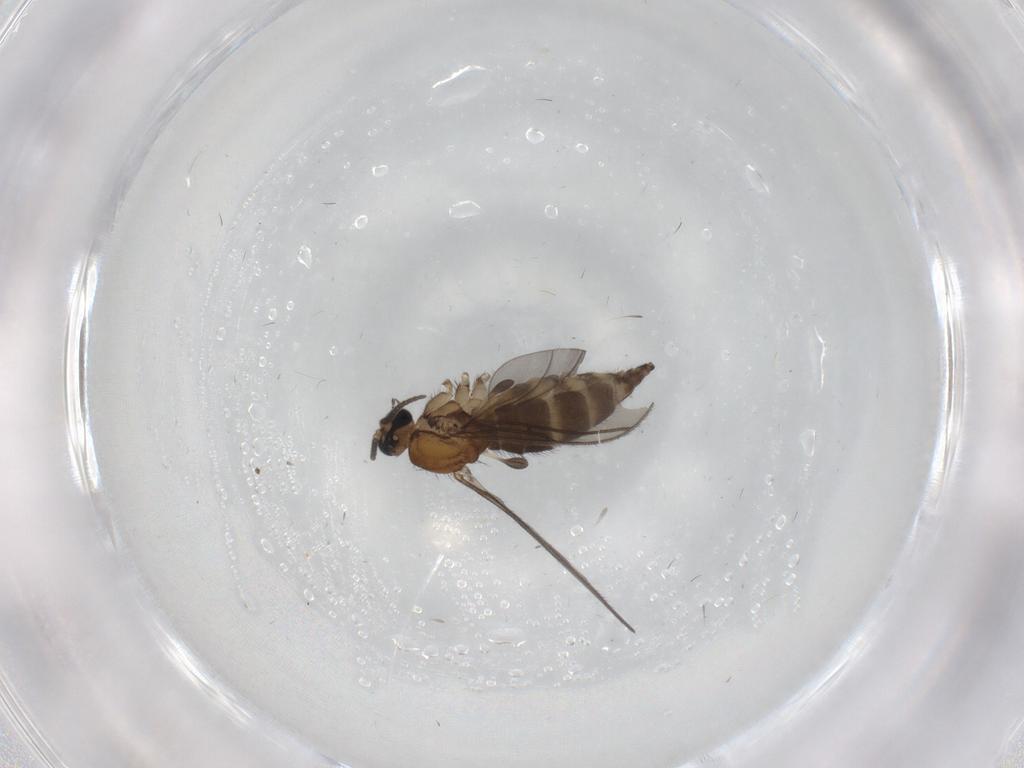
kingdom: Animalia
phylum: Arthropoda
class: Insecta
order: Diptera
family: Sciaridae
